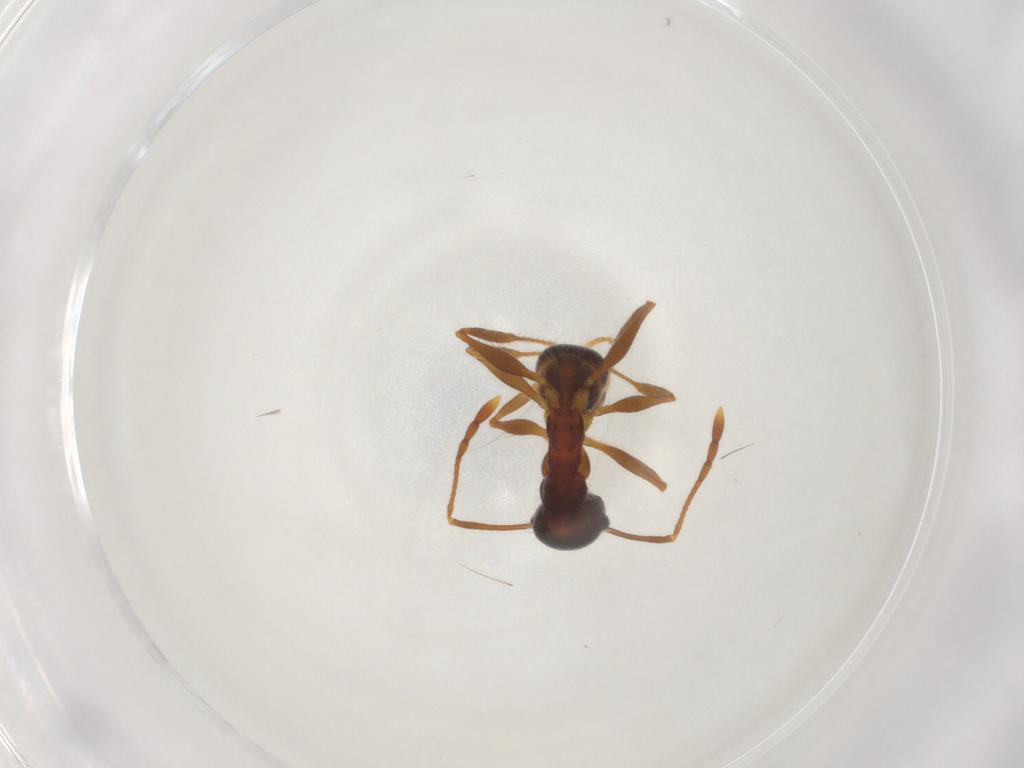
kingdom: Animalia
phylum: Arthropoda
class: Insecta
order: Hymenoptera
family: Formicidae
